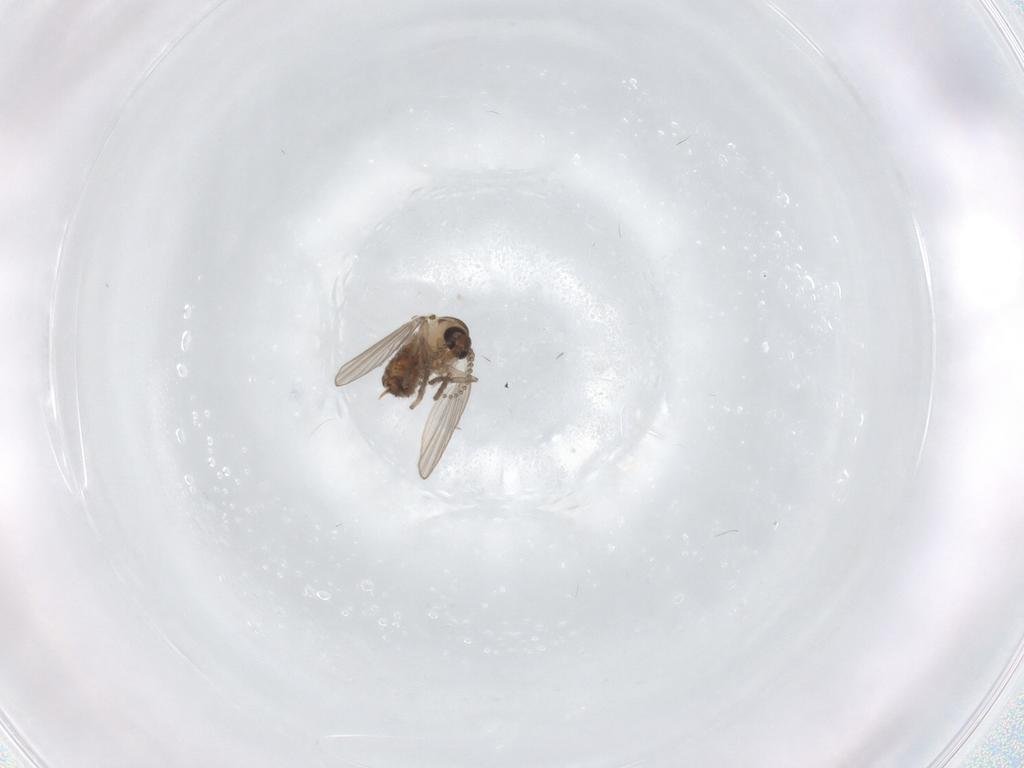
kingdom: Animalia
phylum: Arthropoda
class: Insecta
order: Diptera
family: Psychodidae
